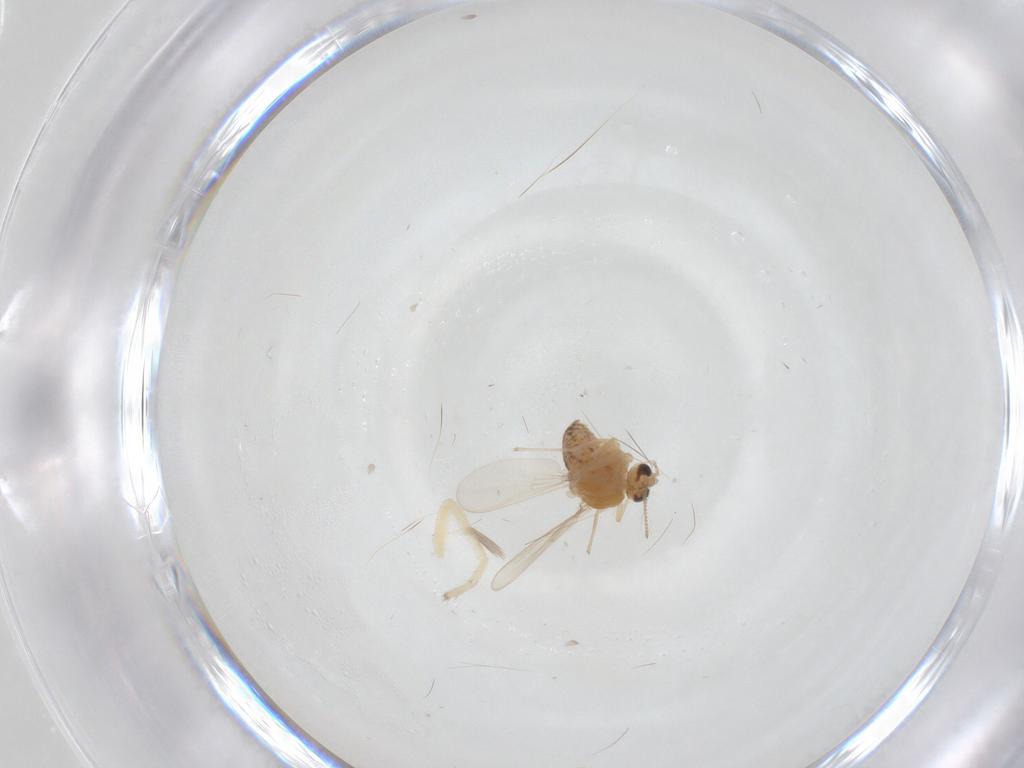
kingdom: Animalia
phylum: Arthropoda
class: Insecta
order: Diptera
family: Chironomidae
